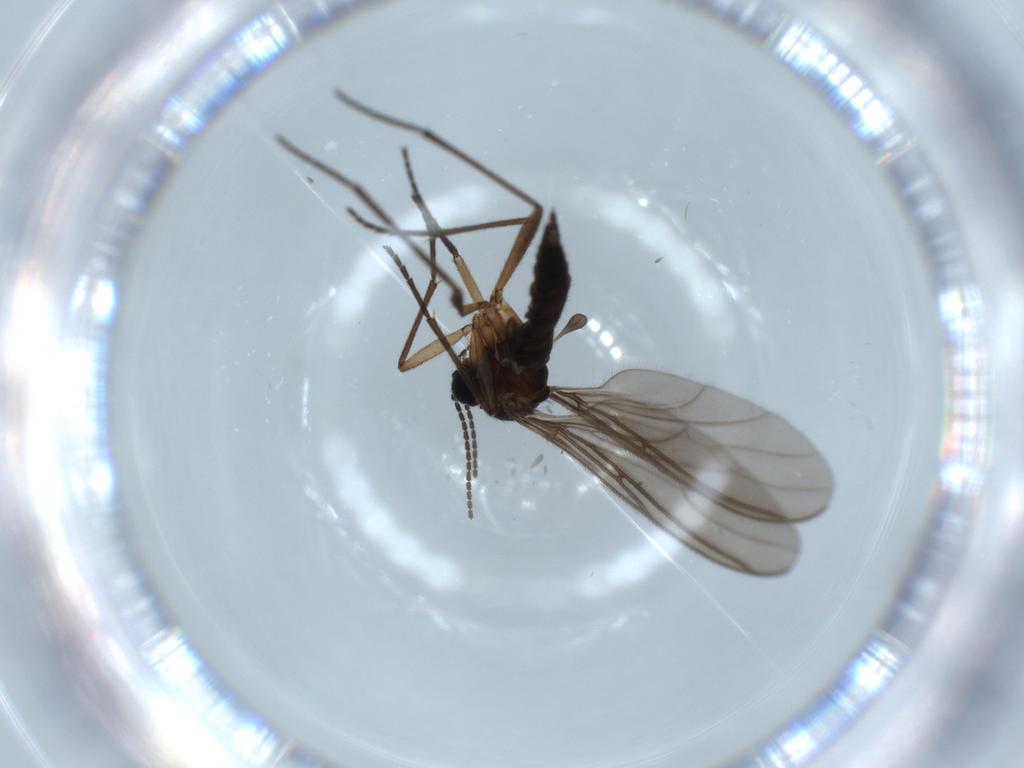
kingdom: Animalia
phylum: Arthropoda
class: Insecta
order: Diptera
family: Sciaridae
